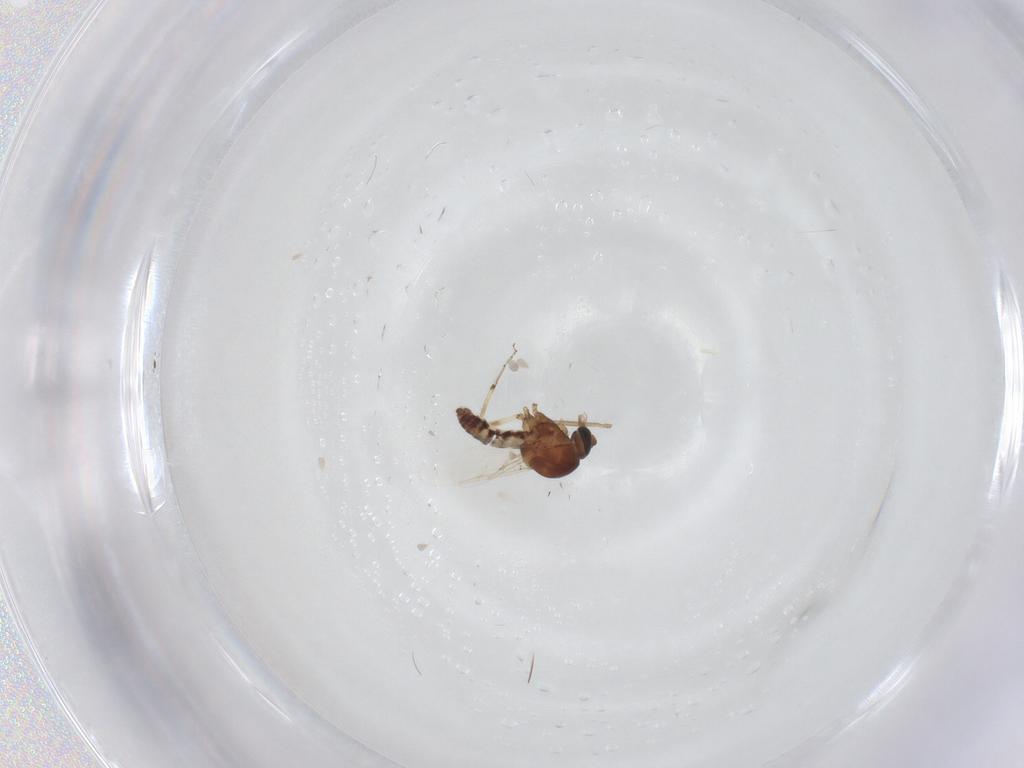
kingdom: Animalia
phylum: Arthropoda
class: Insecta
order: Diptera
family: Ceratopogonidae
